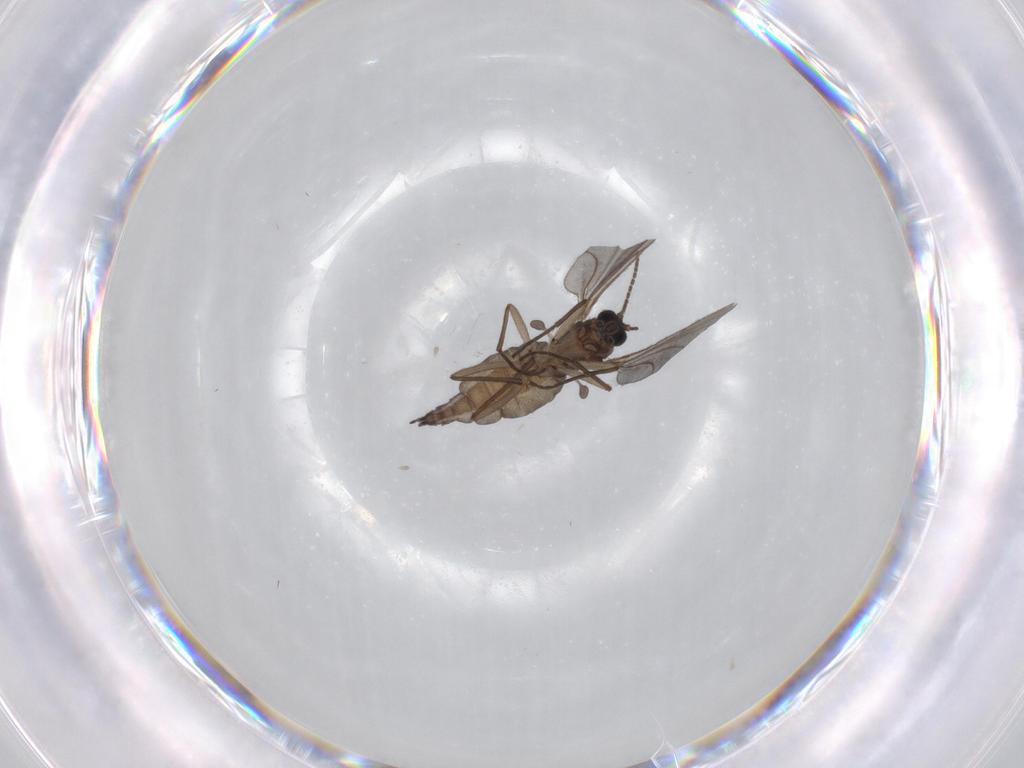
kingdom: Animalia
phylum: Arthropoda
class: Insecta
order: Diptera
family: Sciaridae
